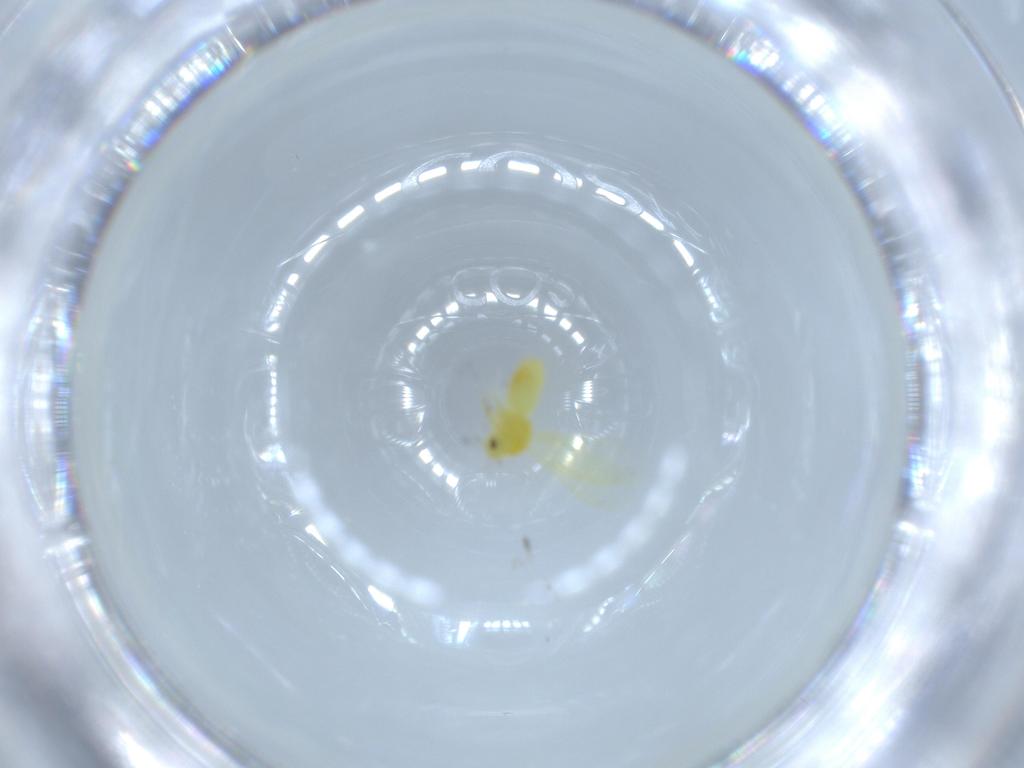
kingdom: Animalia
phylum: Arthropoda
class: Insecta
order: Hemiptera
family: Aleyrodidae
